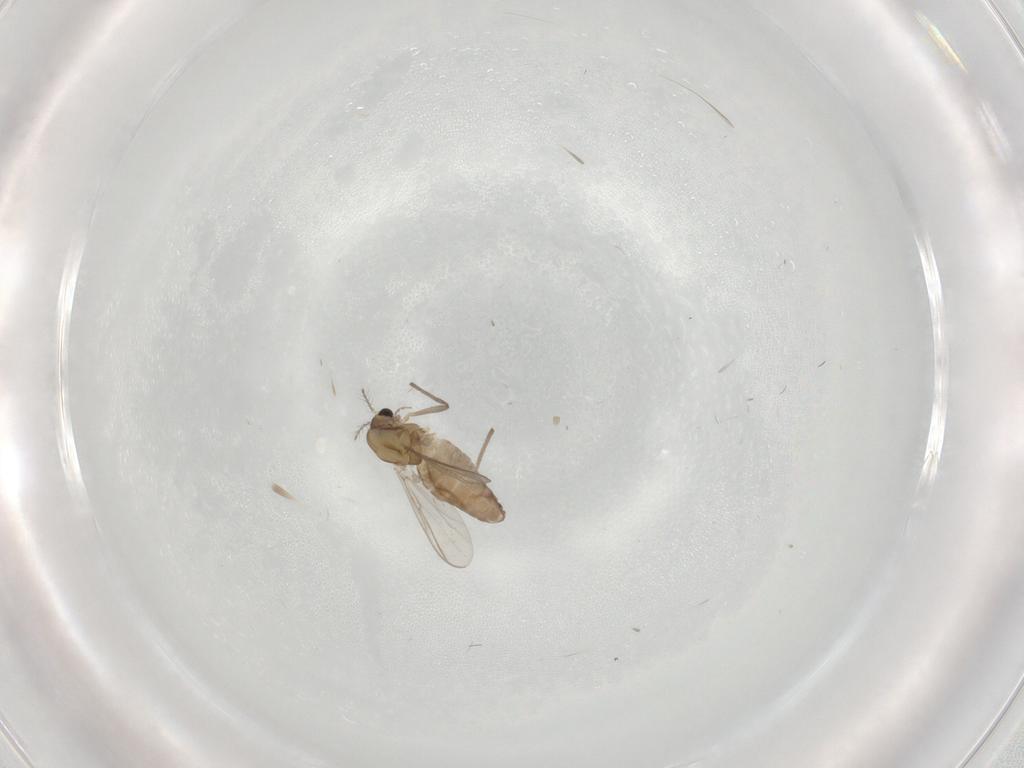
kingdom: Animalia
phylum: Arthropoda
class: Insecta
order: Diptera
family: Chironomidae
